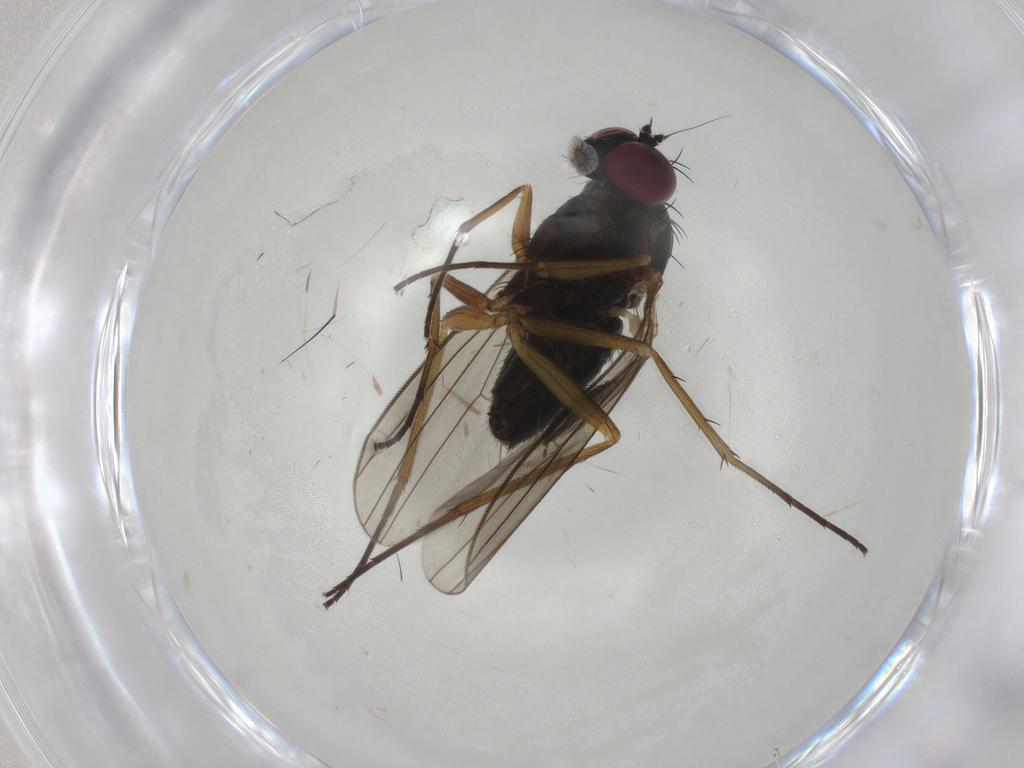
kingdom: Animalia
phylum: Arthropoda
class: Insecta
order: Diptera
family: Dolichopodidae
